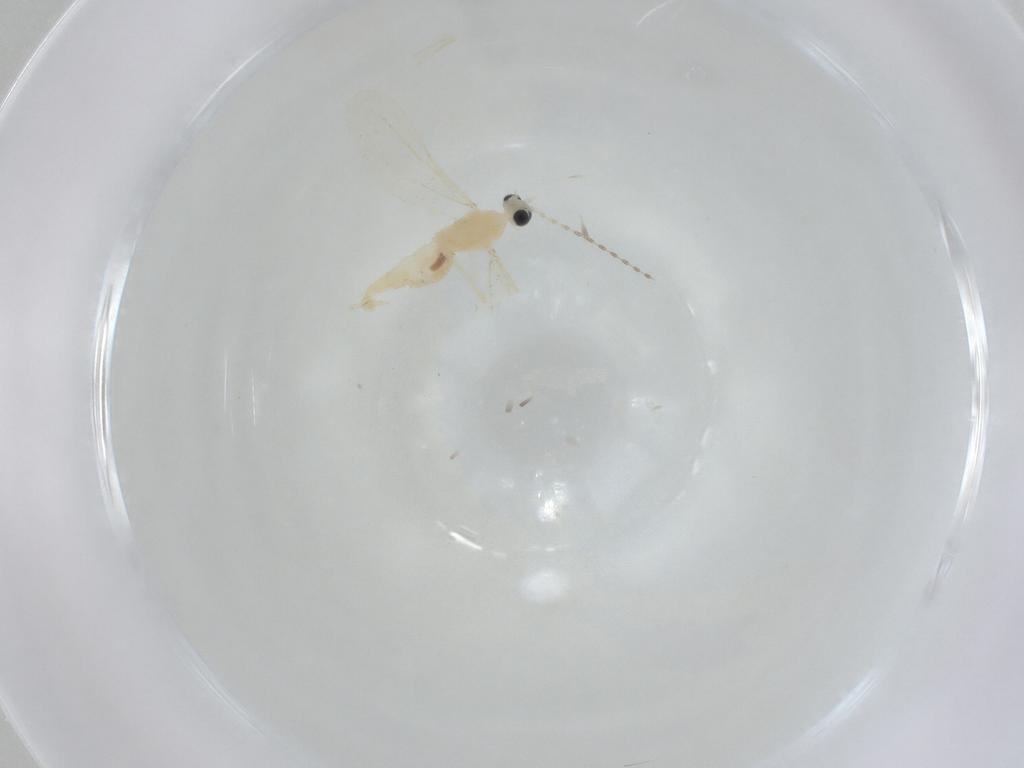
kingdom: Animalia
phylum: Arthropoda
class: Insecta
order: Diptera
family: Cecidomyiidae
